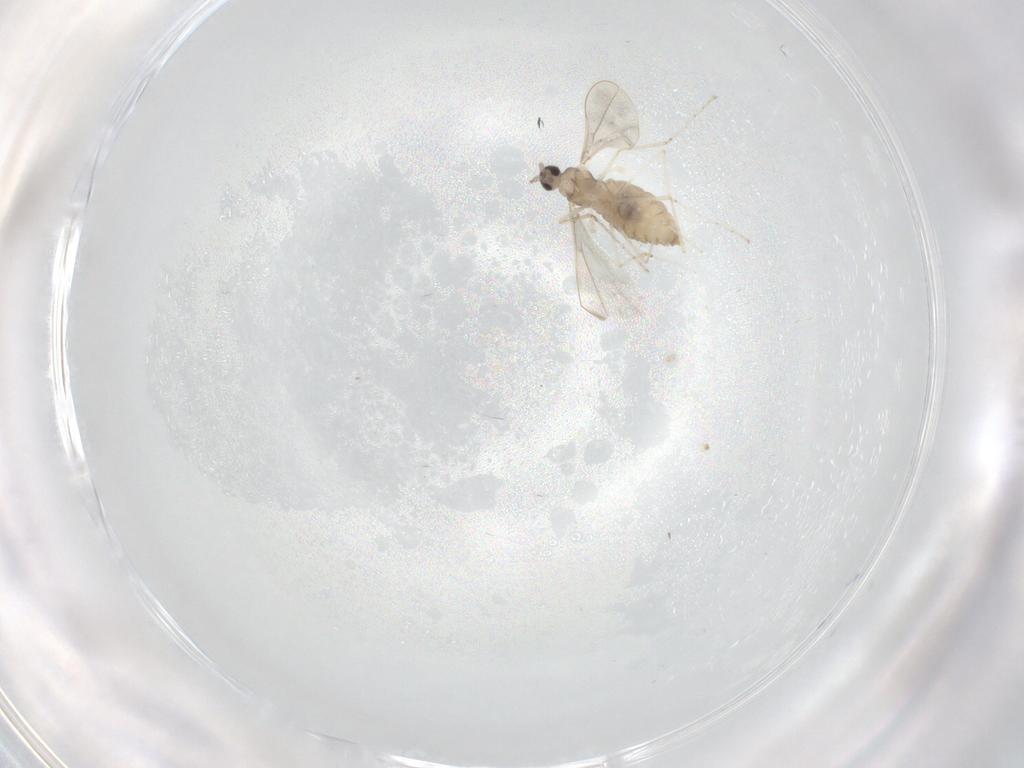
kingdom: Animalia
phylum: Arthropoda
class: Insecta
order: Diptera
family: Cecidomyiidae
